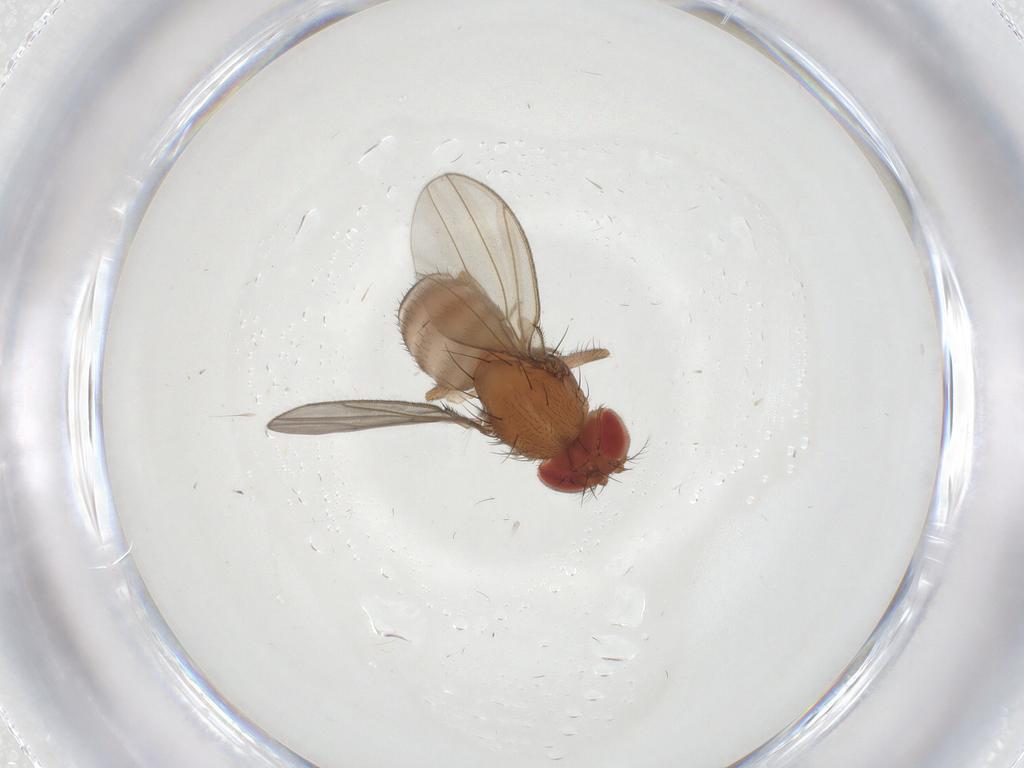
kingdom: Animalia
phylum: Arthropoda
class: Insecta
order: Diptera
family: Drosophilidae
